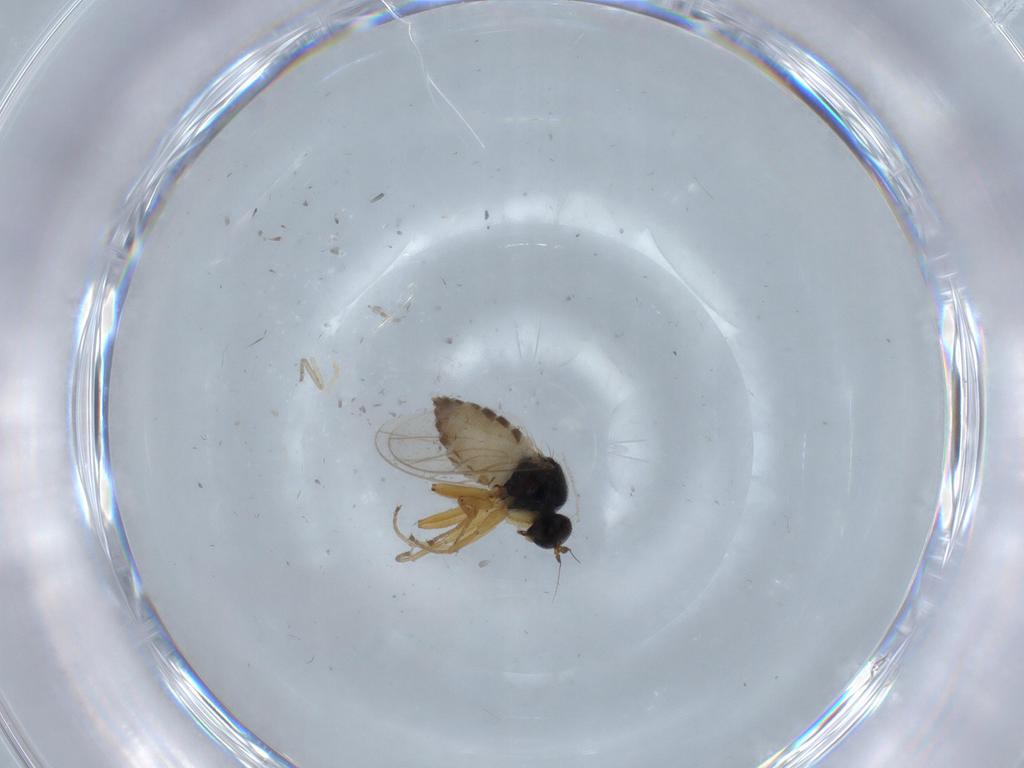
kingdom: Animalia
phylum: Arthropoda
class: Insecta
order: Diptera
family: Hybotidae
